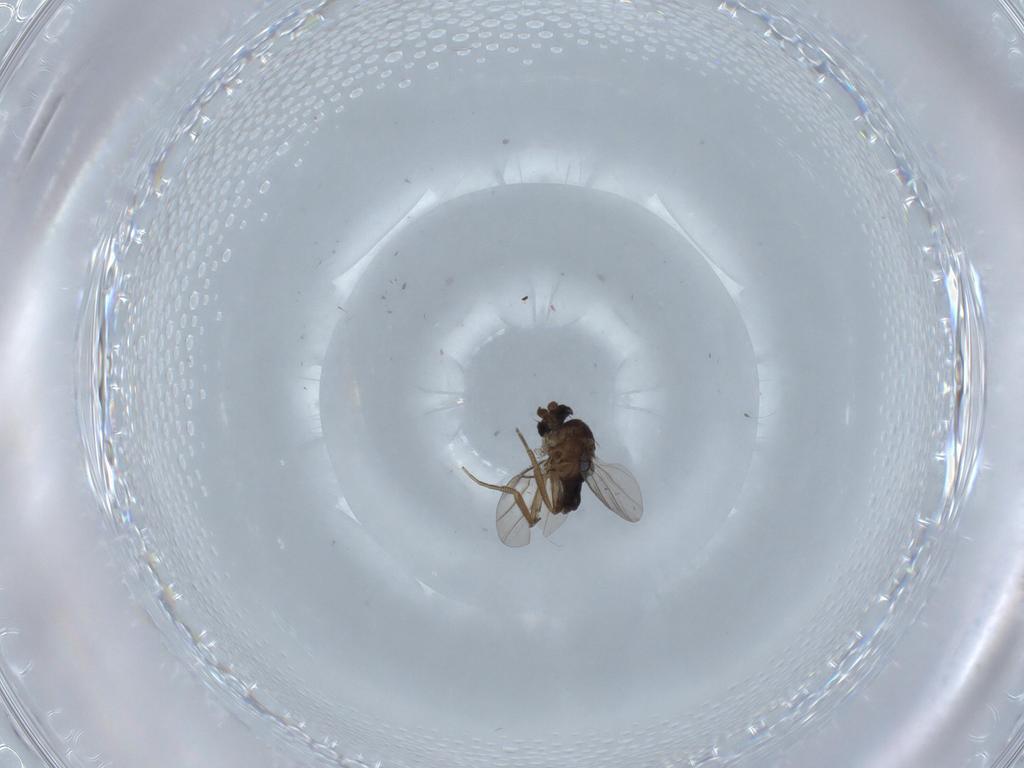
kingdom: Animalia
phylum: Arthropoda
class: Insecta
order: Diptera
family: Phoridae
